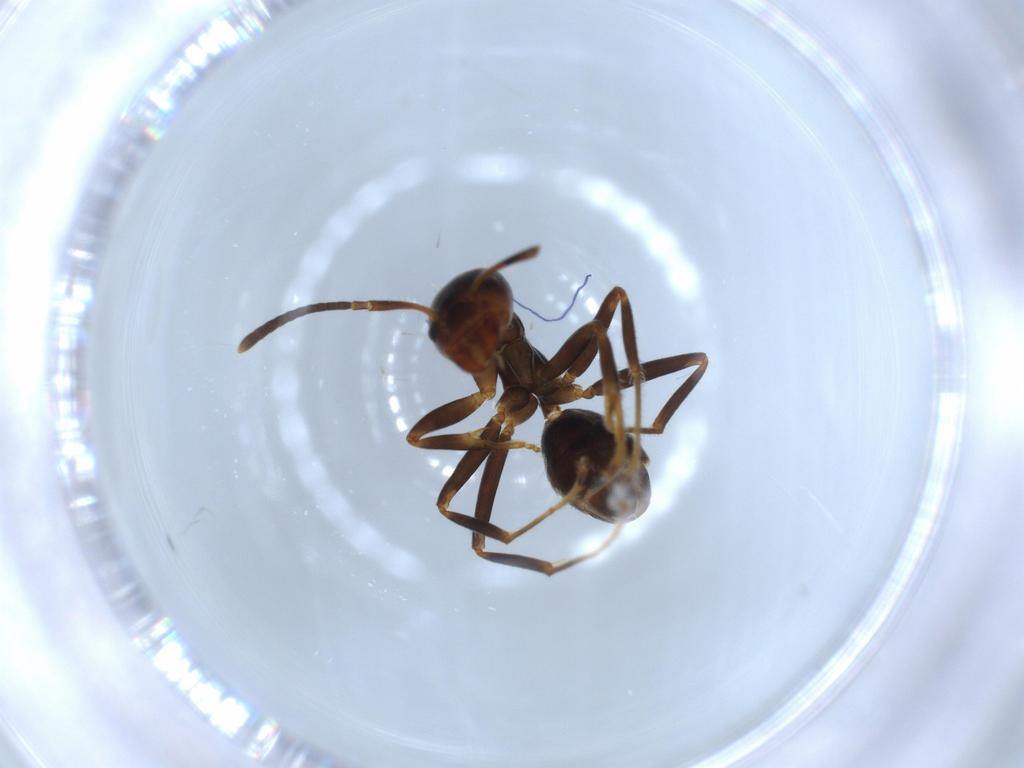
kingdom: Animalia
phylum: Arthropoda
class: Insecta
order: Hymenoptera
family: Formicidae
